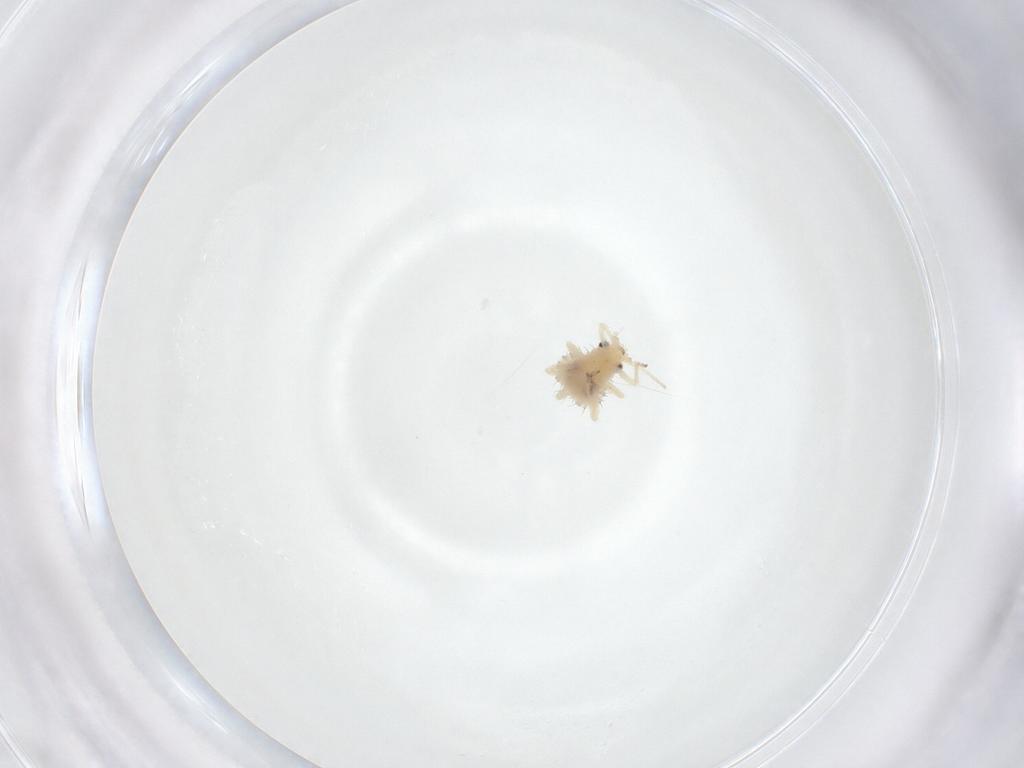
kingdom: Animalia
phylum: Arthropoda
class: Insecta
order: Hemiptera
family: Aphididae
